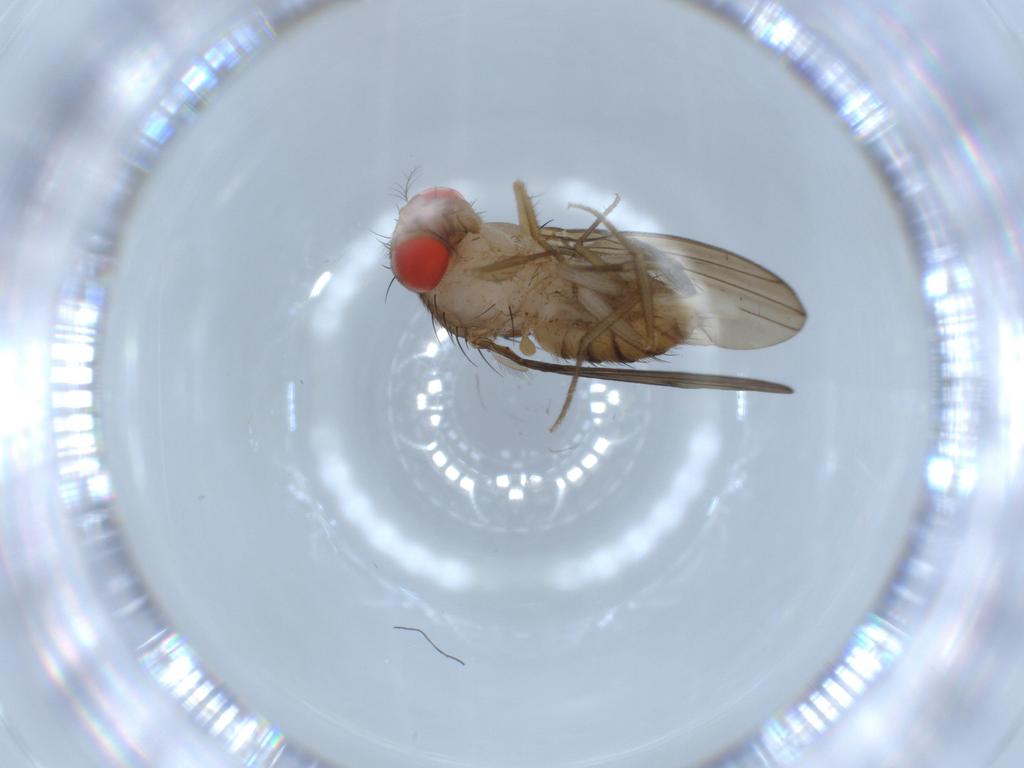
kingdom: Animalia
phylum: Arthropoda
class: Insecta
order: Diptera
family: Drosophilidae
